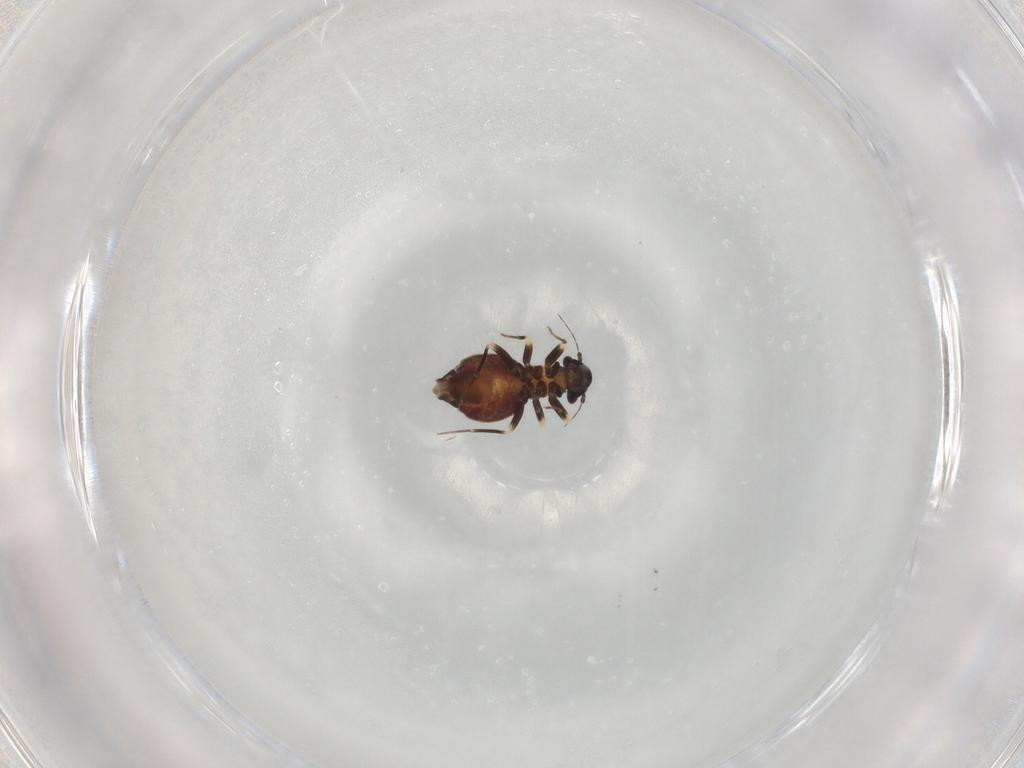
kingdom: Animalia
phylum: Arthropoda
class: Insecta
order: Psocodea
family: Lepidopsocidae
